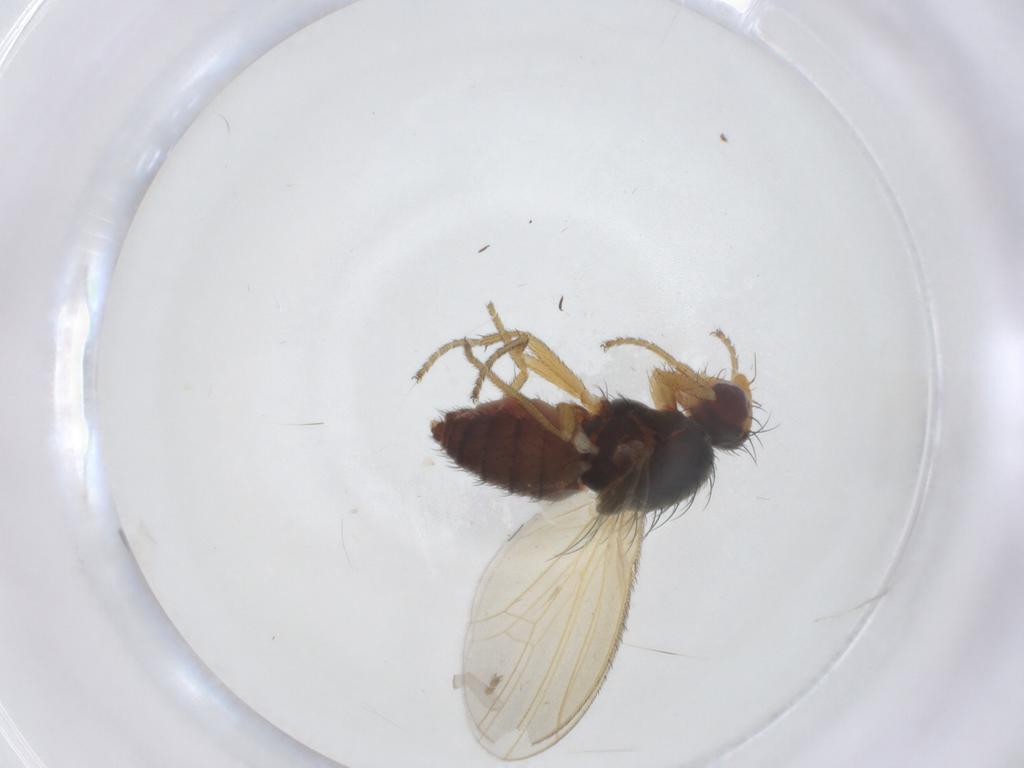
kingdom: Animalia
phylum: Arthropoda
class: Insecta
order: Diptera
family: Heleomyzidae
